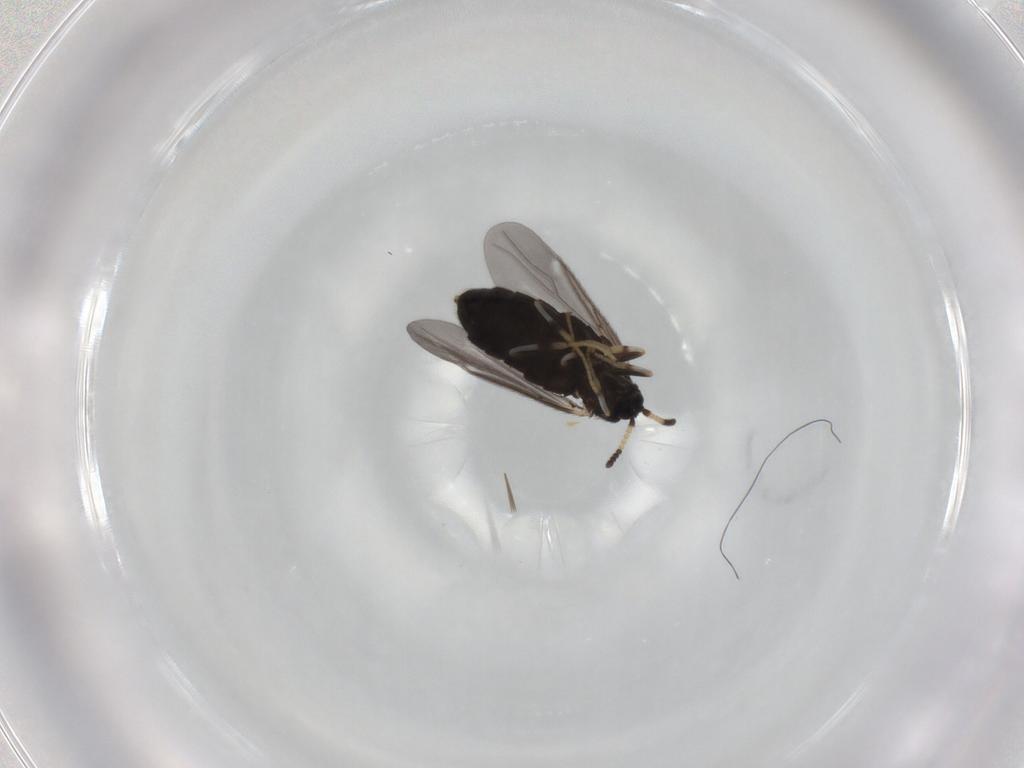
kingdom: Animalia
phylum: Arthropoda
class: Insecta
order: Diptera
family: Scatopsidae
